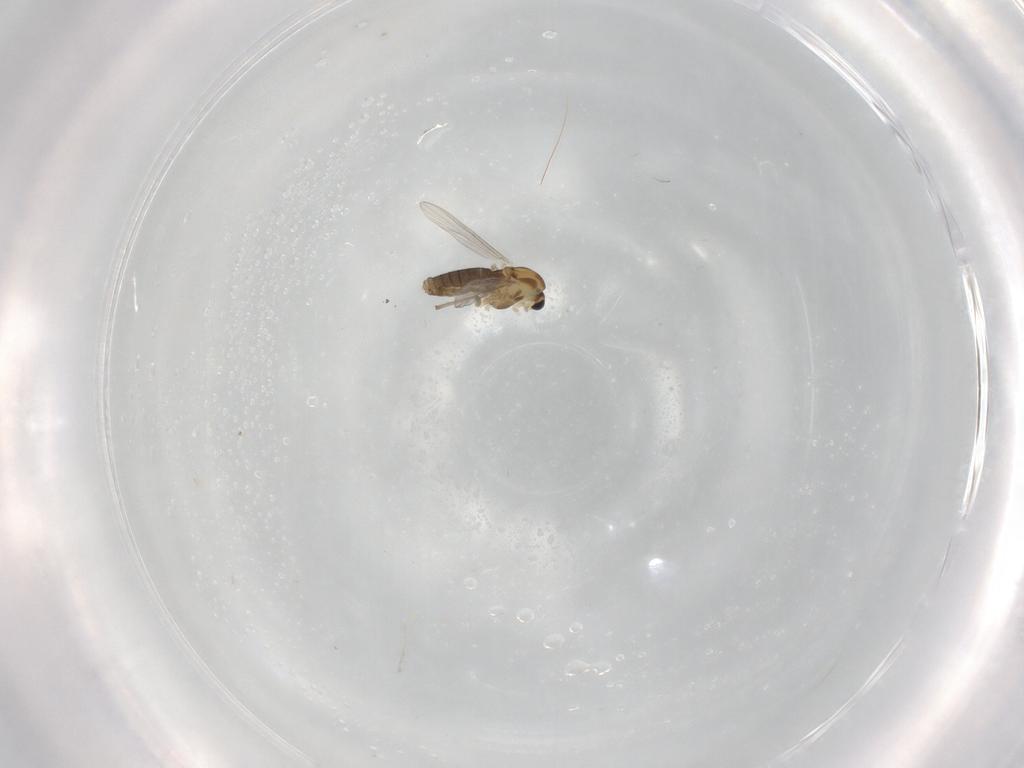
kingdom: Animalia
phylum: Arthropoda
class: Insecta
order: Diptera
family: Chironomidae
